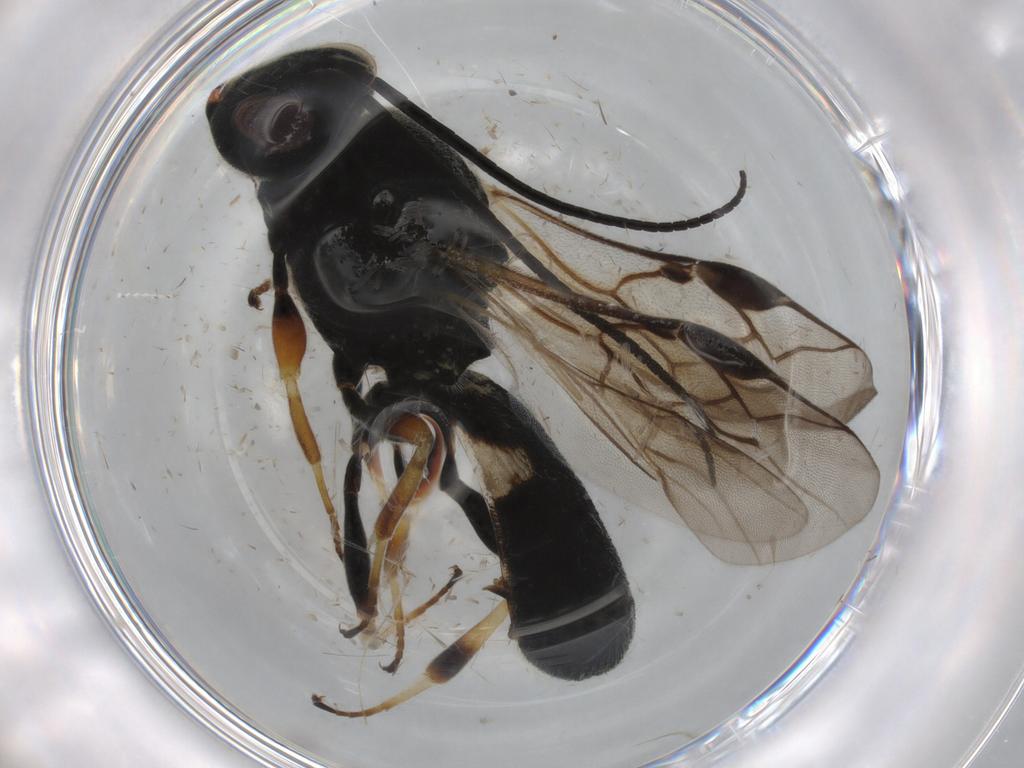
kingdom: Animalia
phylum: Arthropoda
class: Insecta
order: Hymenoptera
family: Braconidae
